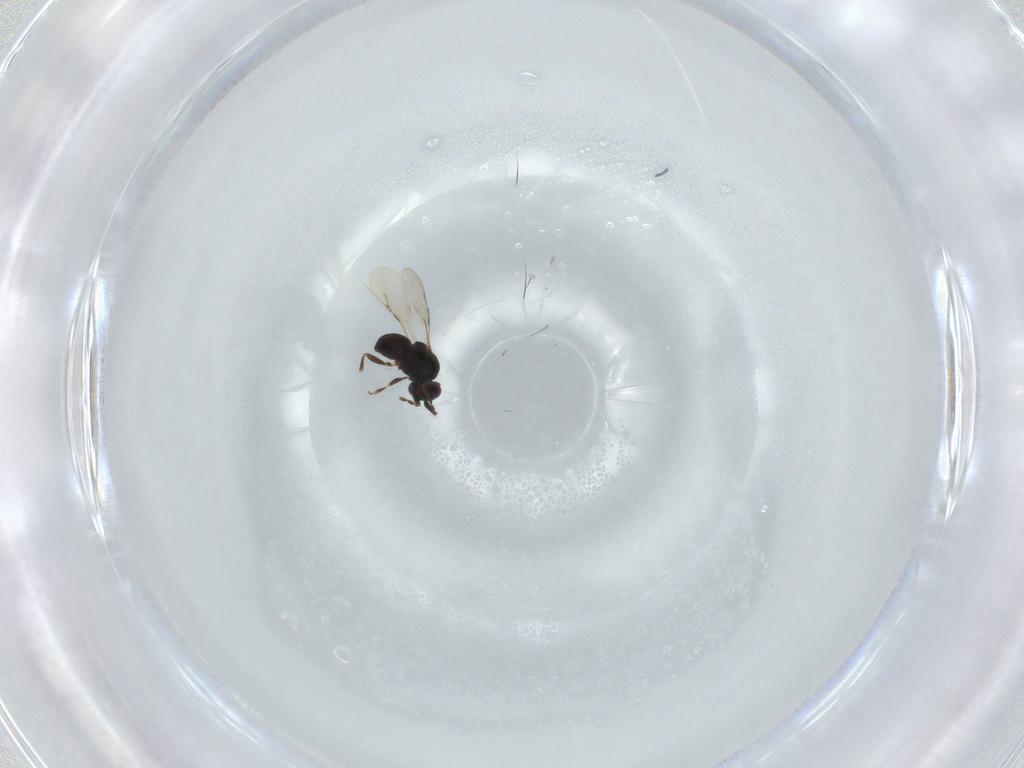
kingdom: Animalia
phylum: Arthropoda
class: Insecta
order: Hymenoptera
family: Ceraphronidae
